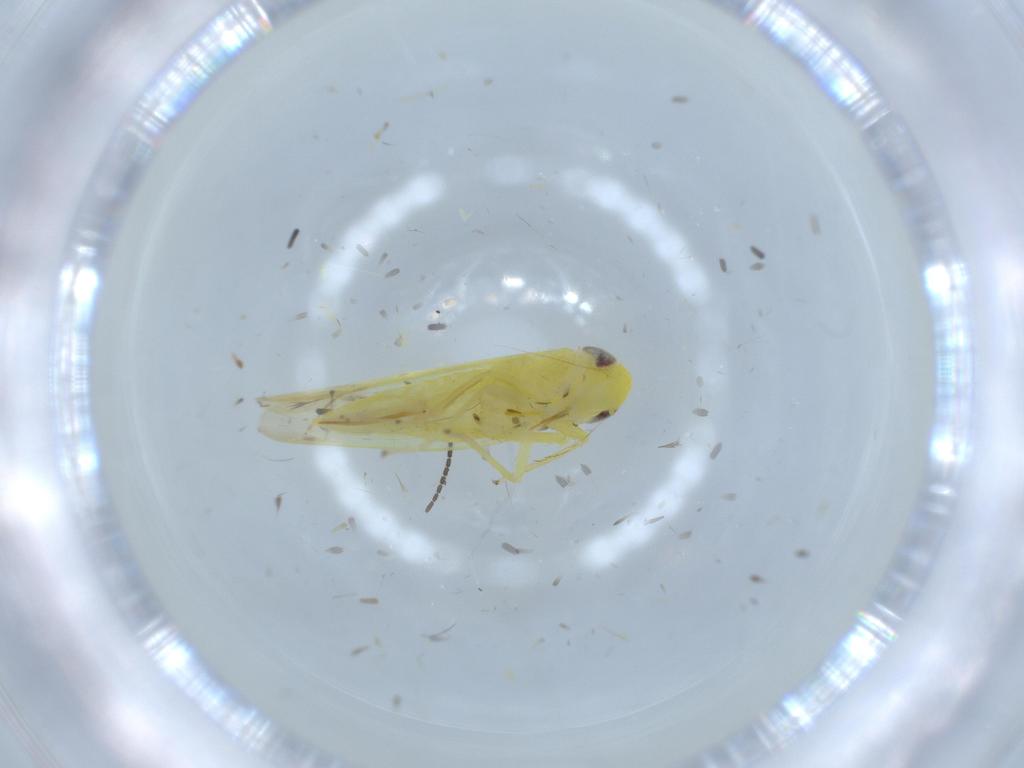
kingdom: Animalia
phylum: Arthropoda
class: Insecta
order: Hemiptera
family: Cicadellidae
